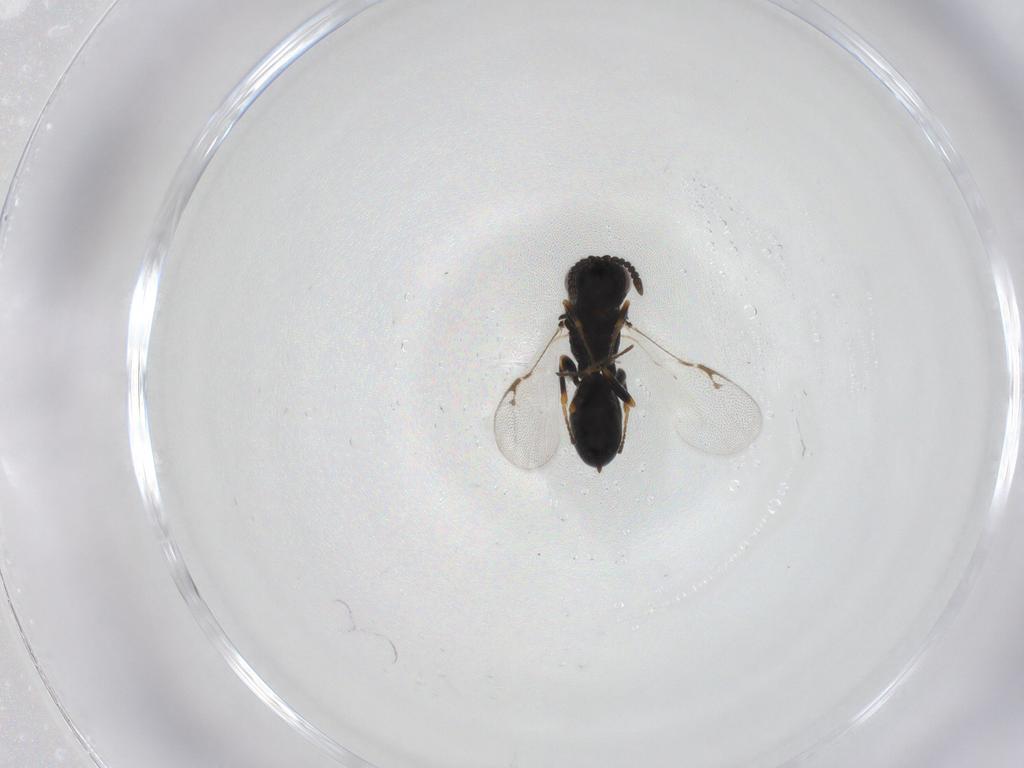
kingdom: Animalia
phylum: Arthropoda
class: Insecta
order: Hymenoptera
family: Eurytomidae
